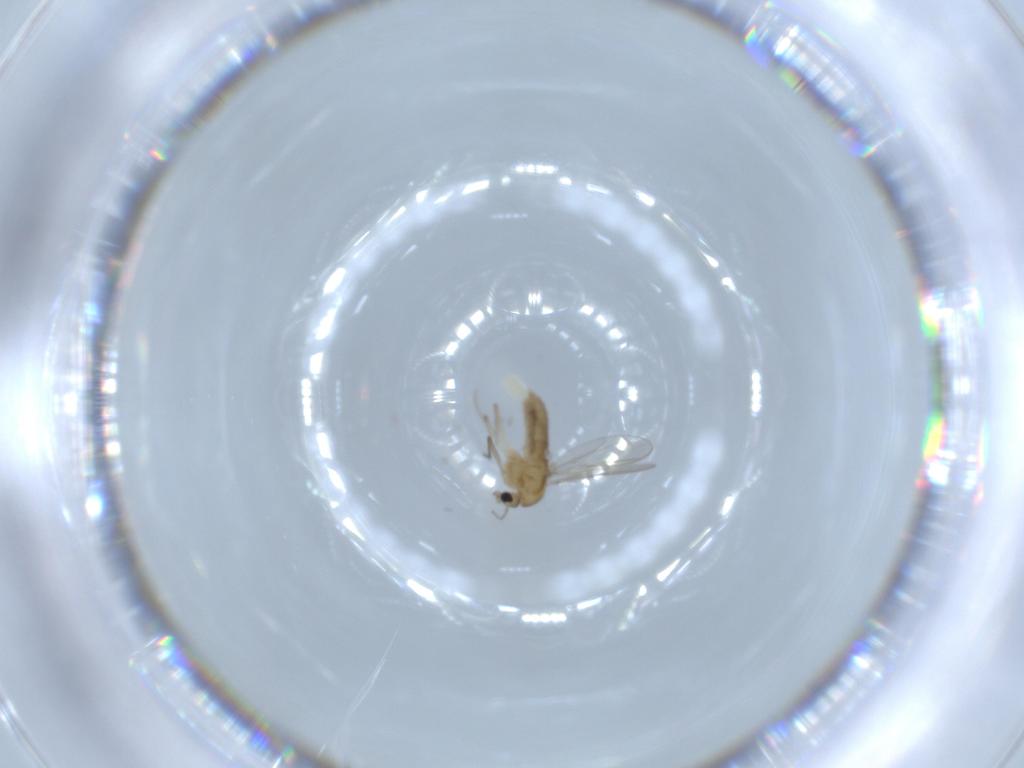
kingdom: Animalia
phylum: Arthropoda
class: Insecta
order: Diptera
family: Chironomidae
